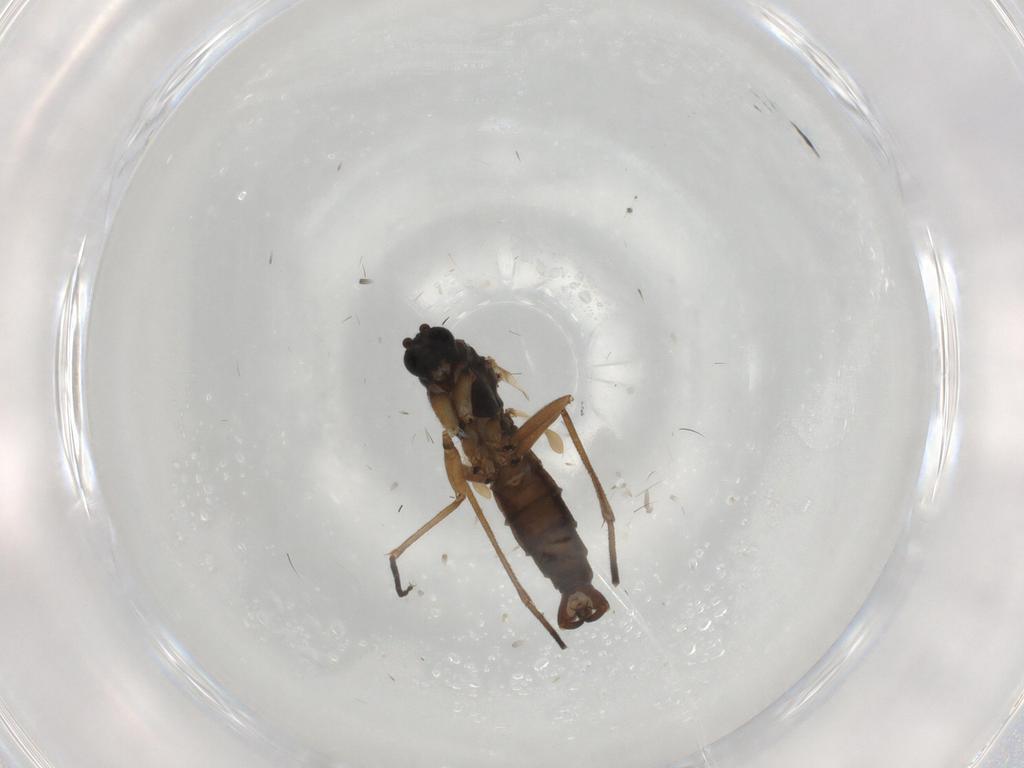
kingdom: Animalia
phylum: Arthropoda
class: Insecta
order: Diptera
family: Sciaridae
